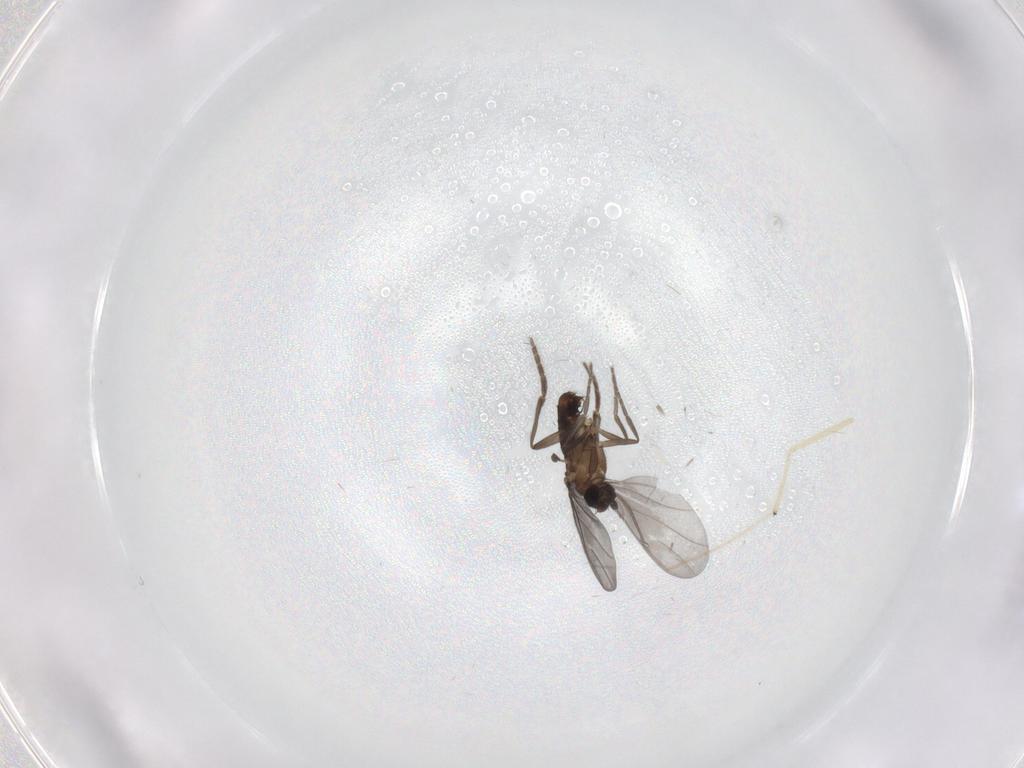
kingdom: Animalia
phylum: Arthropoda
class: Insecta
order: Diptera
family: Phoridae
